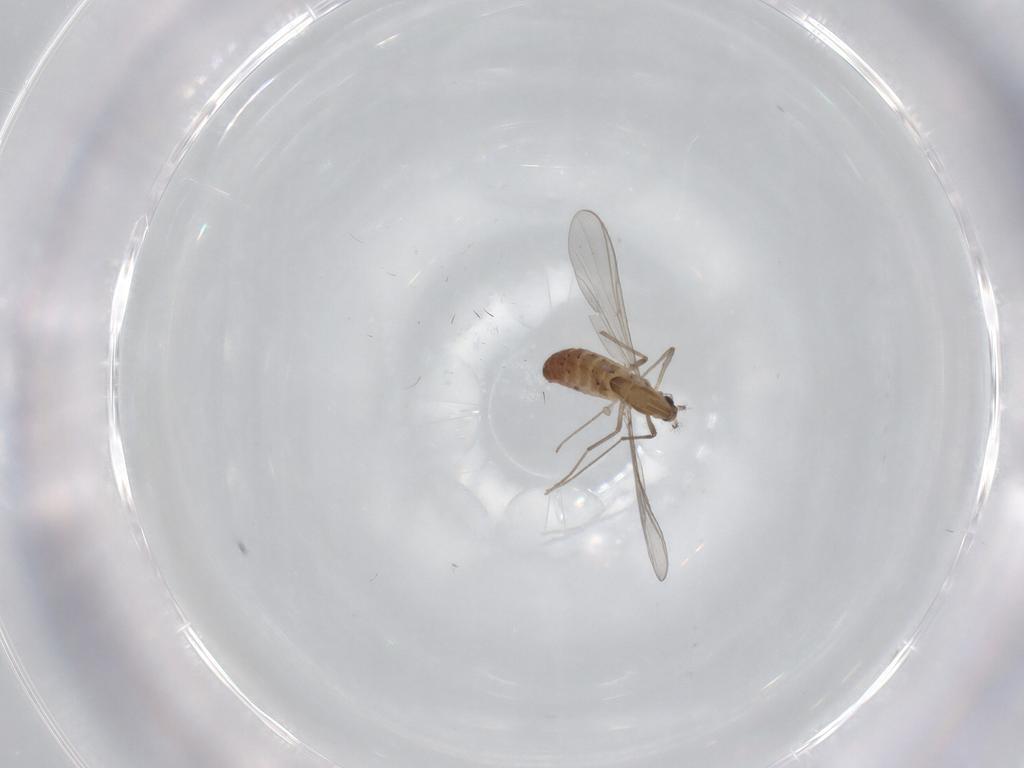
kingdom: Animalia
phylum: Arthropoda
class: Insecta
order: Diptera
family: Chironomidae
